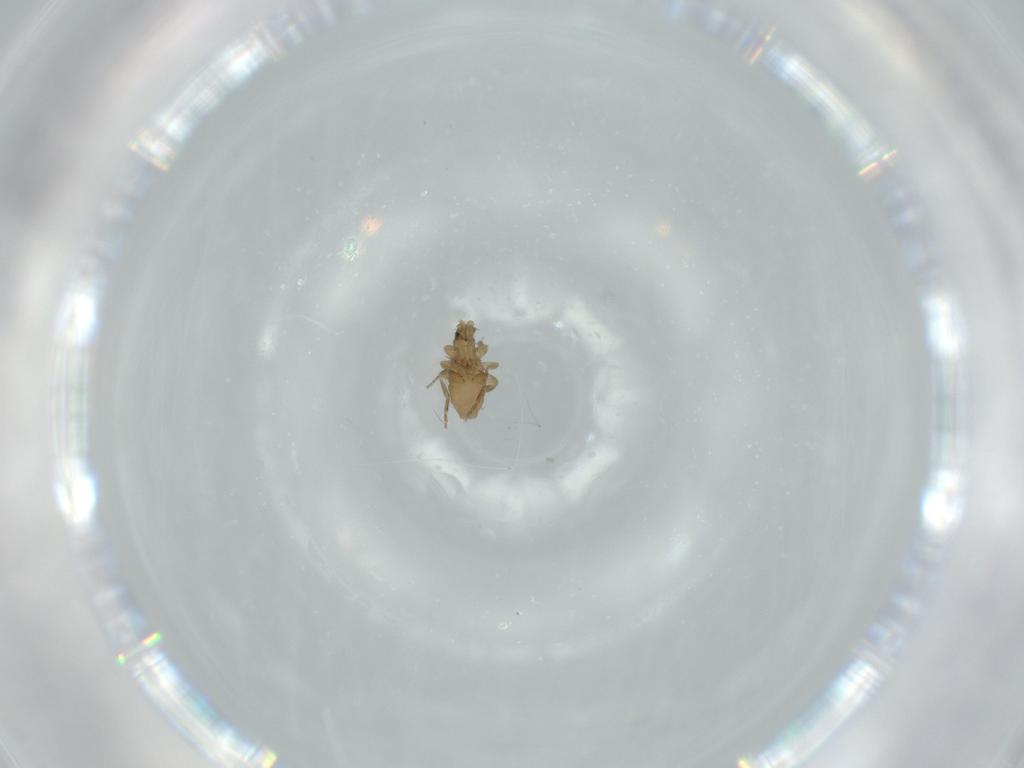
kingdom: Animalia
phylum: Arthropoda
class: Insecta
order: Diptera
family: Phoridae
